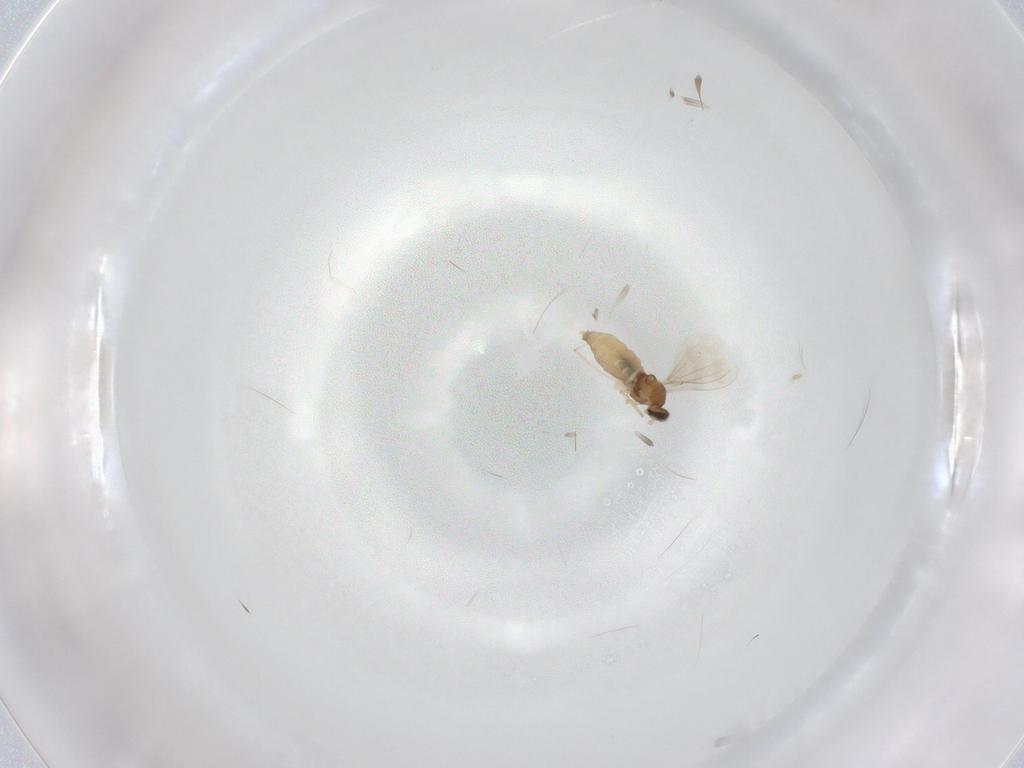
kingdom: Animalia
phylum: Arthropoda
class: Insecta
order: Diptera
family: Cecidomyiidae
